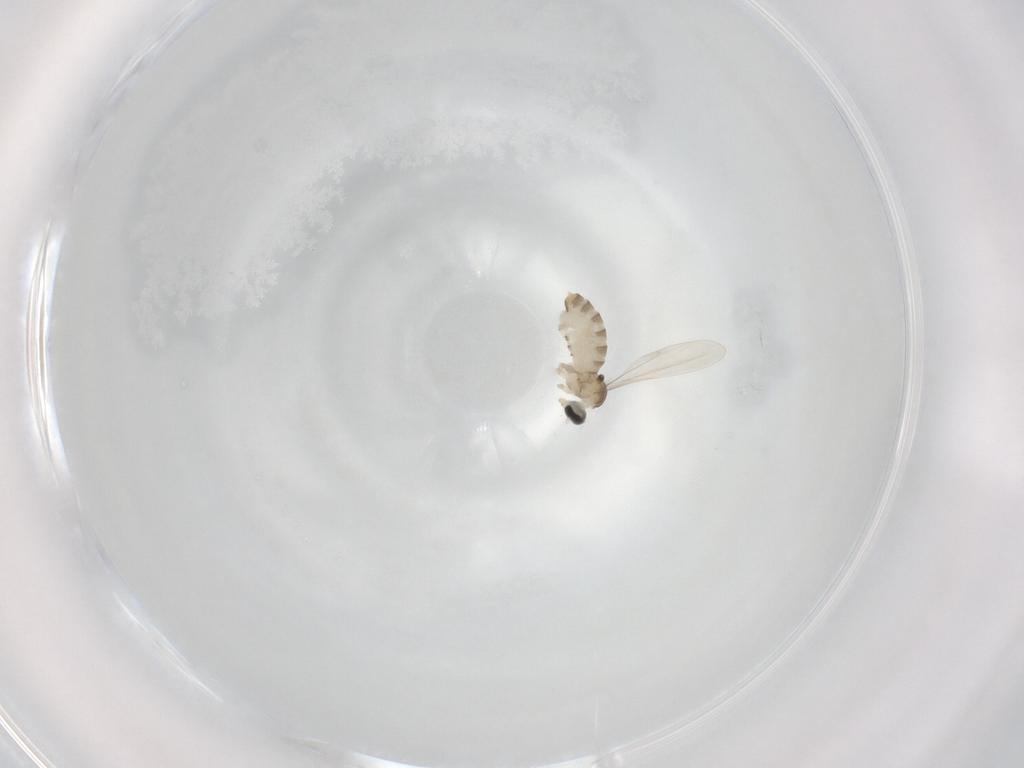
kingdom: Animalia
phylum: Arthropoda
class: Insecta
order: Diptera
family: Cecidomyiidae
